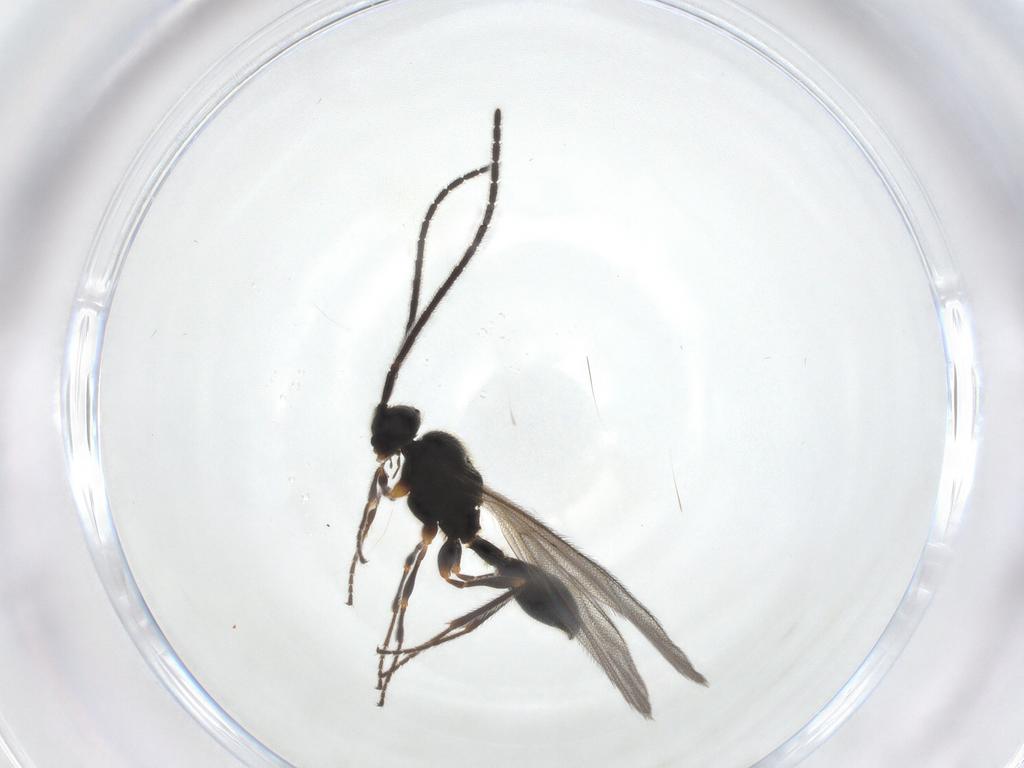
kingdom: Animalia
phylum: Arthropoda
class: Insecta
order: Hymenoptera
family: Diapriidae
